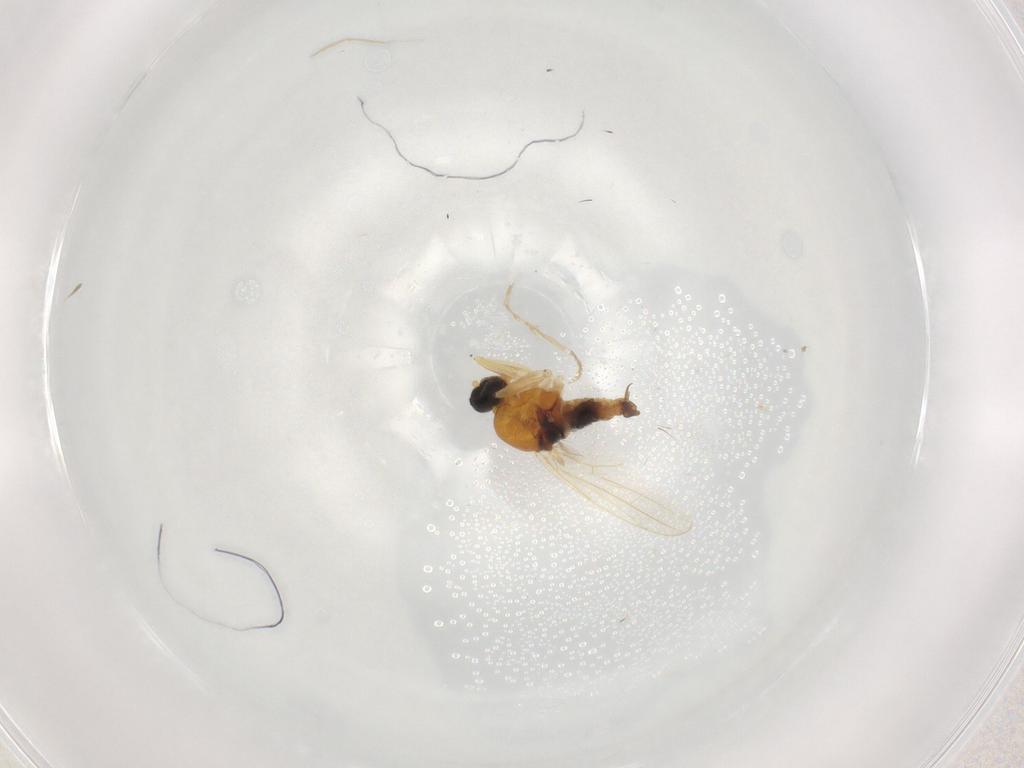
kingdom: Animalia
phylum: Arthropoda
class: Insecta
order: Diptera
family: Hybotidae
